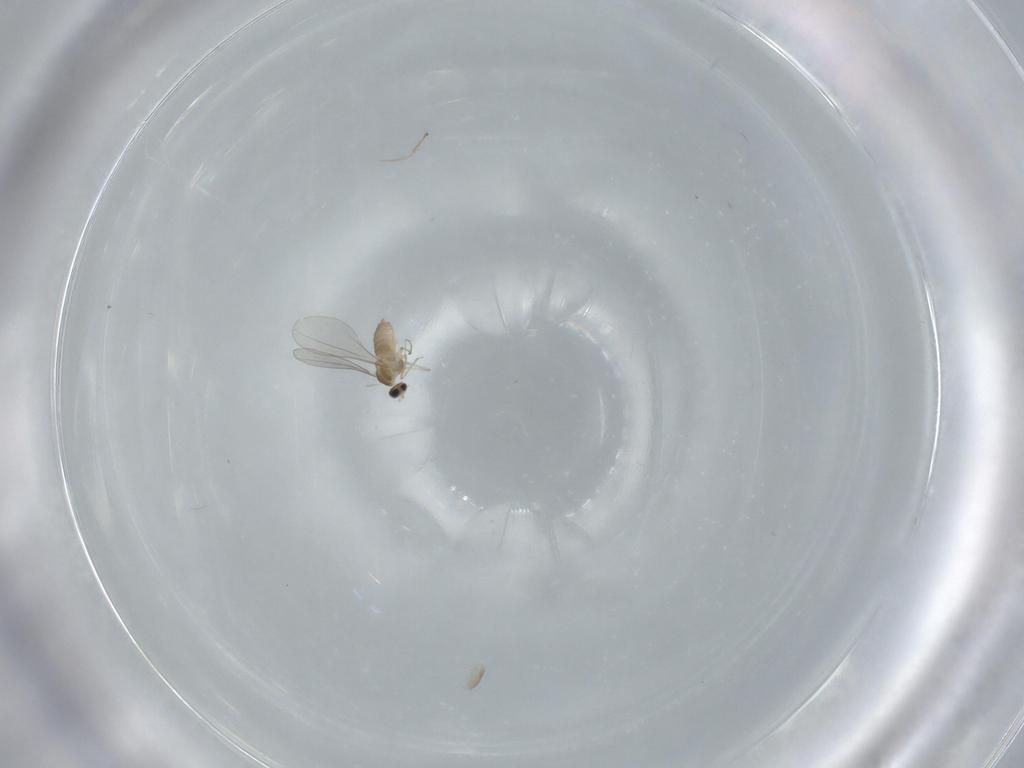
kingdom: Animalia
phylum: Arthropoda
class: Insecta
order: Diptera
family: Cecidomyiidae
